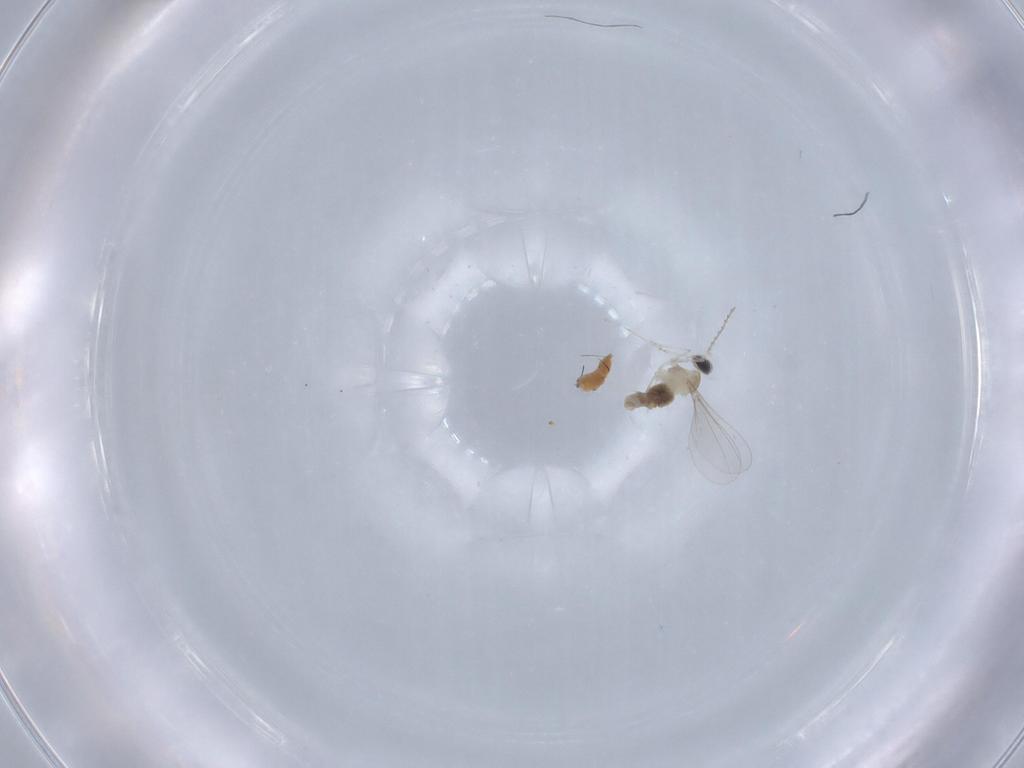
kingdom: Animalia
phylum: Arthropoda
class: Insecta
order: Diptera
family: Cecidomyiidae
